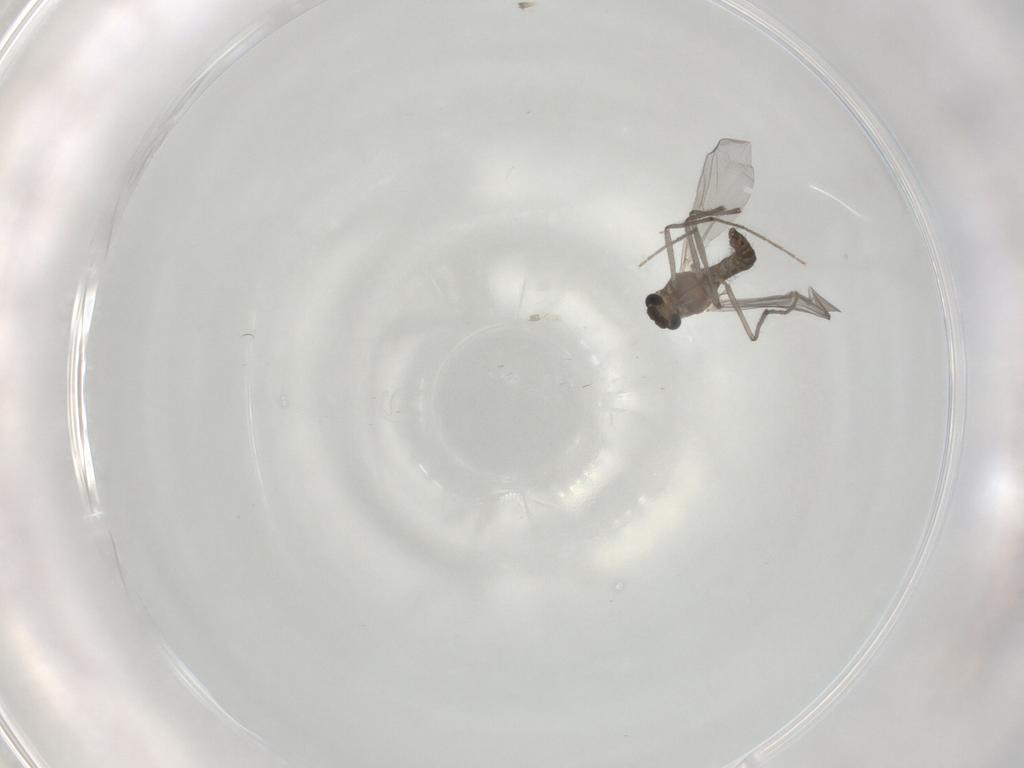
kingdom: Animalia
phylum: Arthropoda
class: Insecta
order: Diptera
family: Chironomidae
